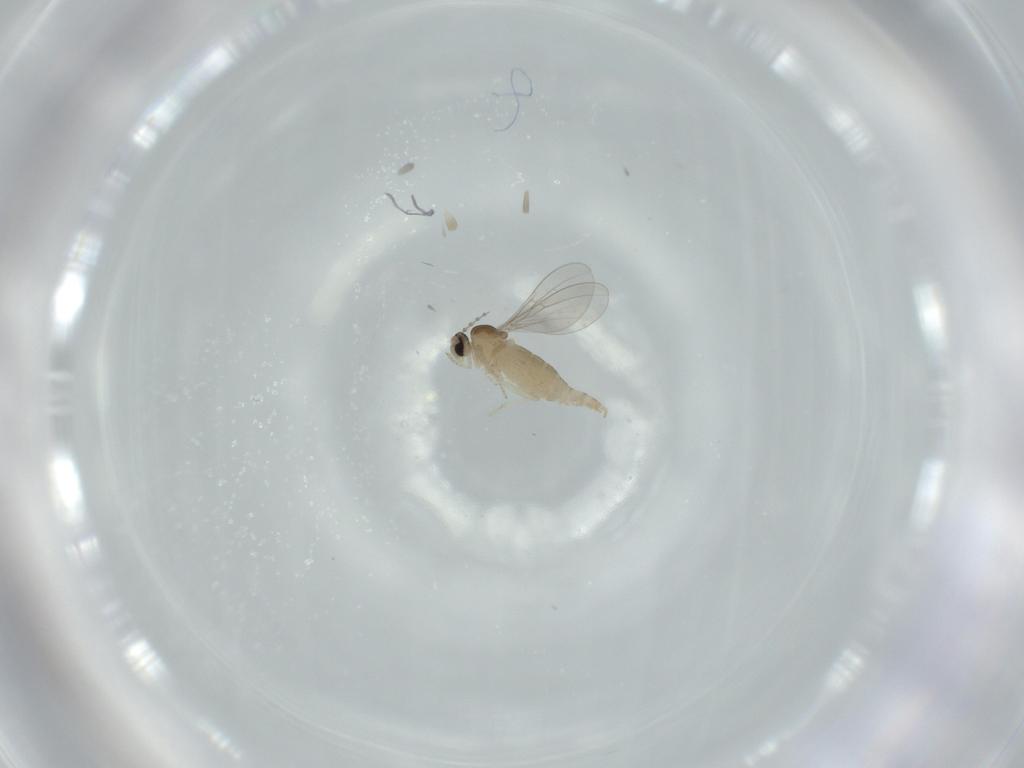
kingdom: Animalia
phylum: Arthropoda
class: Insecta
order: Diptera
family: Cecidomyiidae
